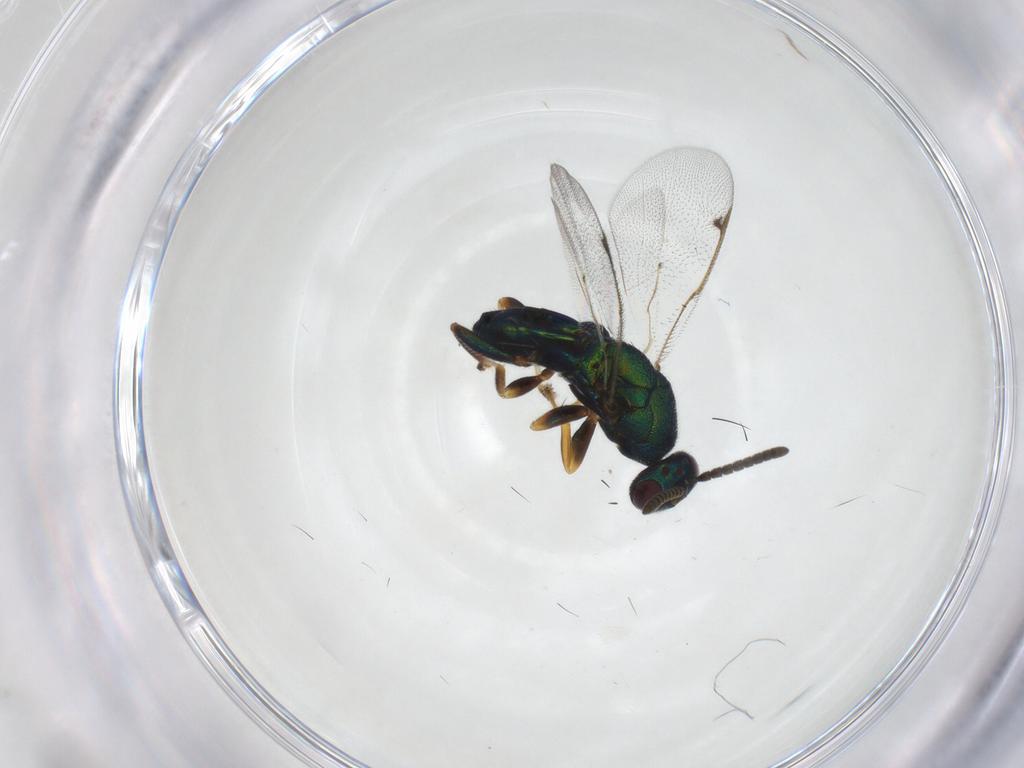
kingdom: Animalia
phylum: Arthropoda
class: Insecta
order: Hymenoptera
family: Torymidae
